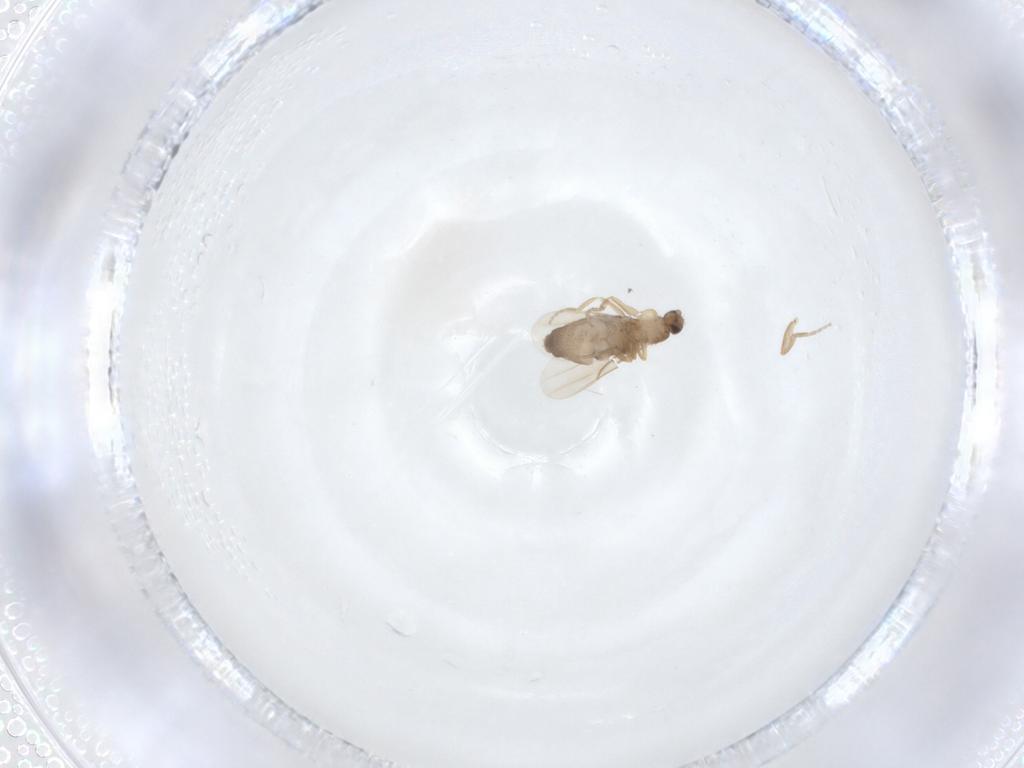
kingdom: Animalia
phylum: Arthropoda
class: Insecta
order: Diptera
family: Phoridae
